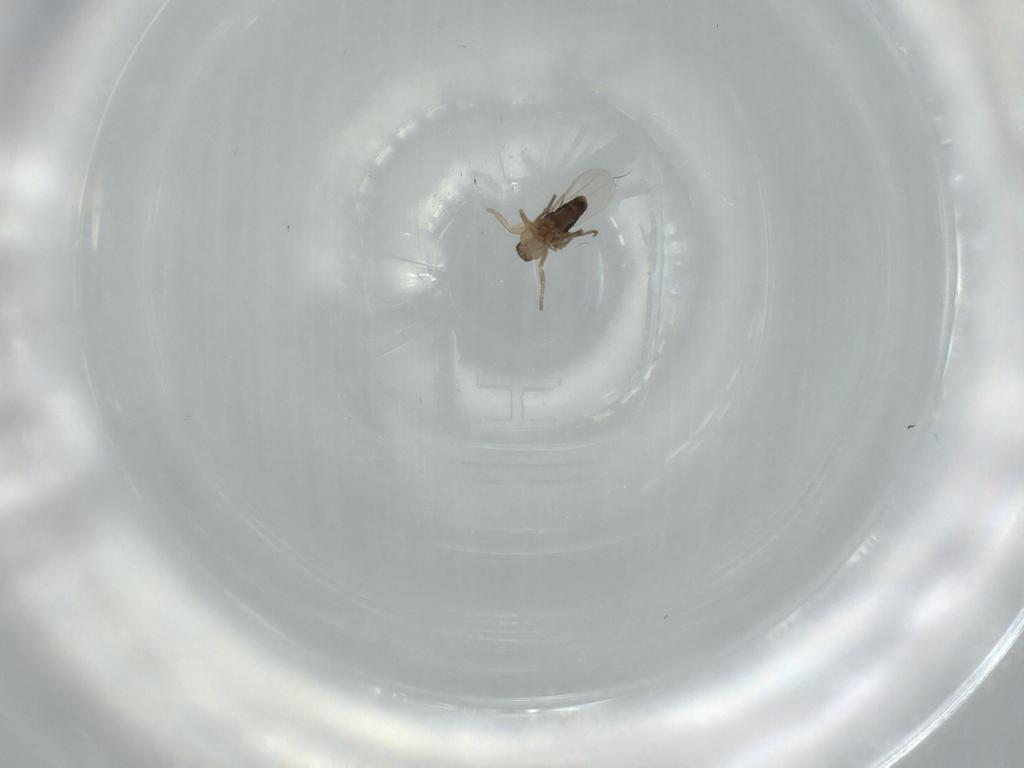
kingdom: Animalia
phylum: Arthropoda
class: Insecta
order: Diptera
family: Phoridae
